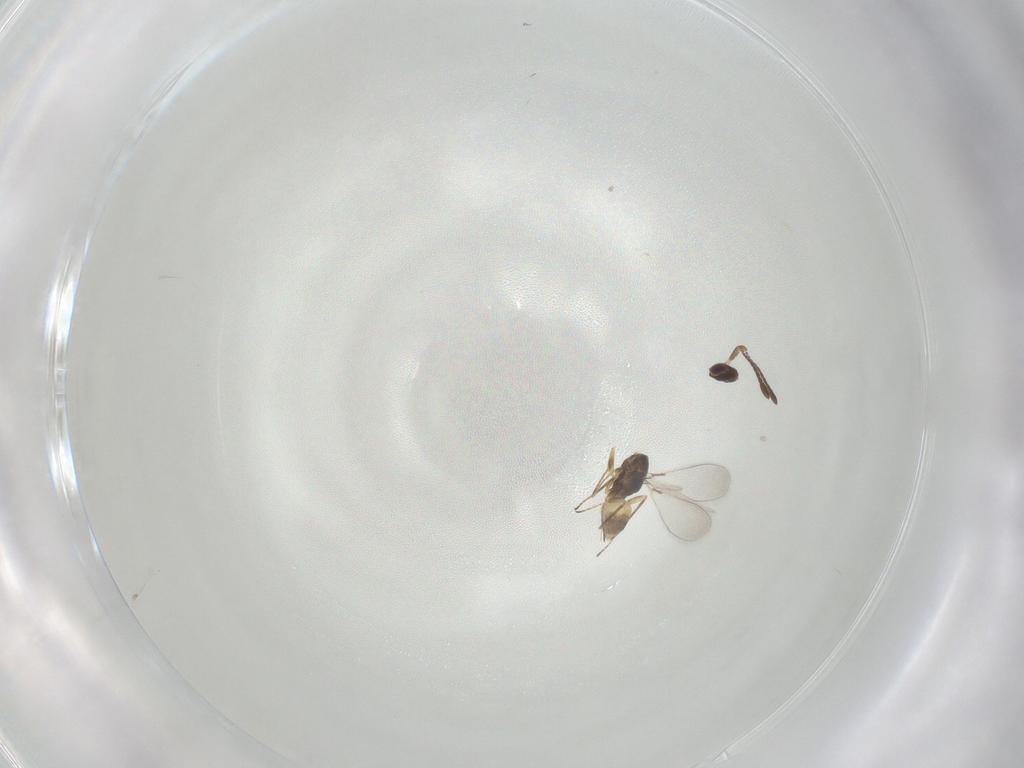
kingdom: Animalia
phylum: Arthropoda
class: Insecta
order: Hymenoptera
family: Mymaridae
